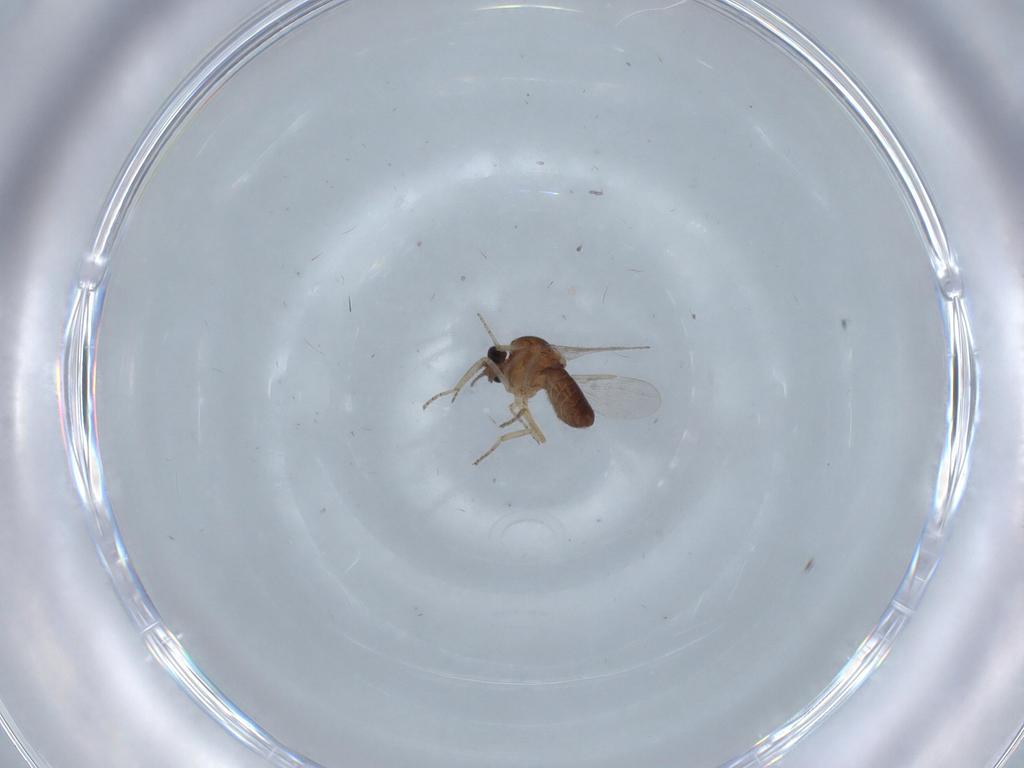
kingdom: Animalia
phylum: Arthropoda
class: Insecta
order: Diptera
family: Ceratopogonidae
